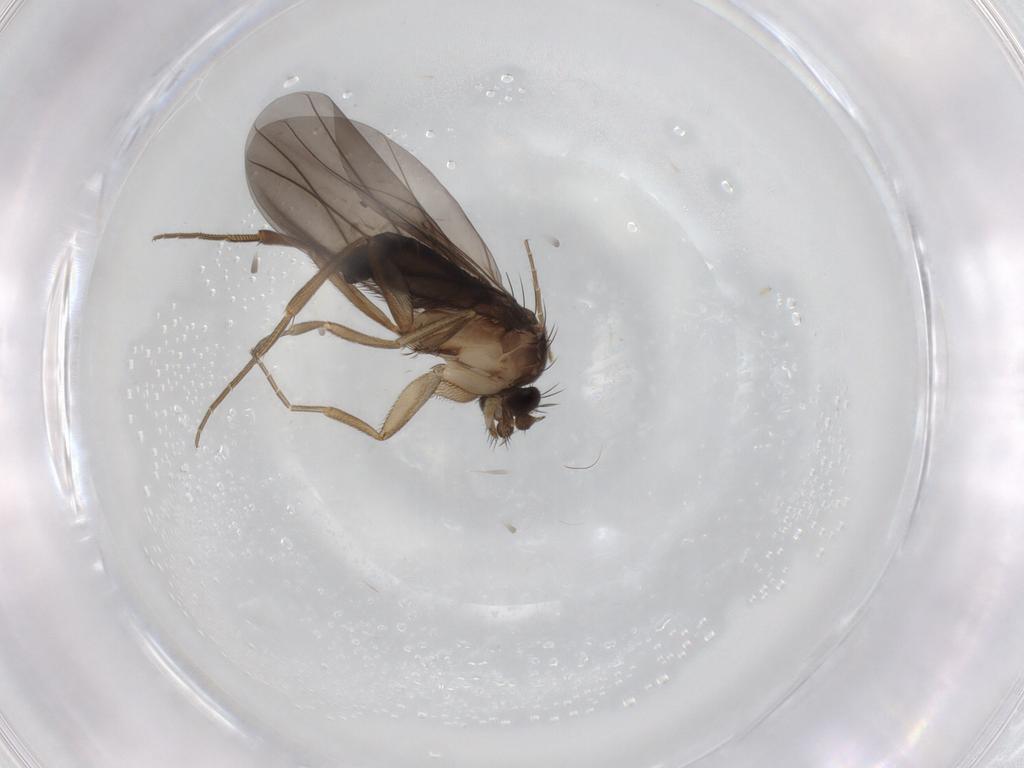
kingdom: Animalia
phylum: Arthropoda
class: Insecta
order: Diptera
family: Phoridae
